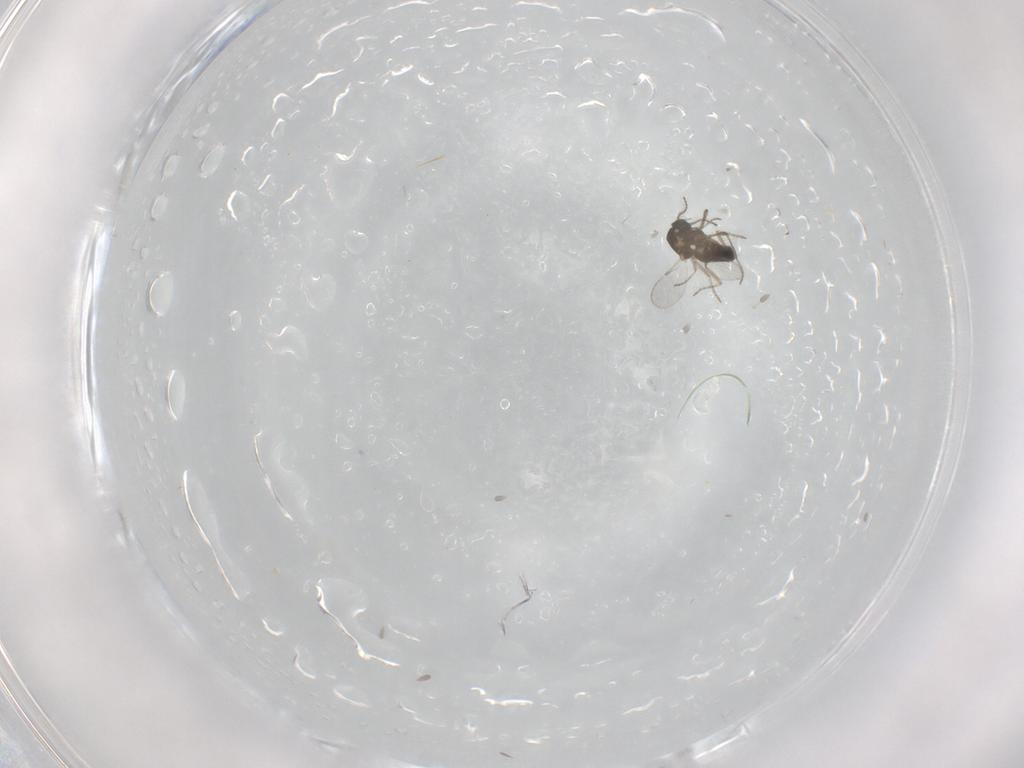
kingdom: Animalia
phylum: Arthropoda
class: Insecta
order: Diptera
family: Ceratopogonidae
